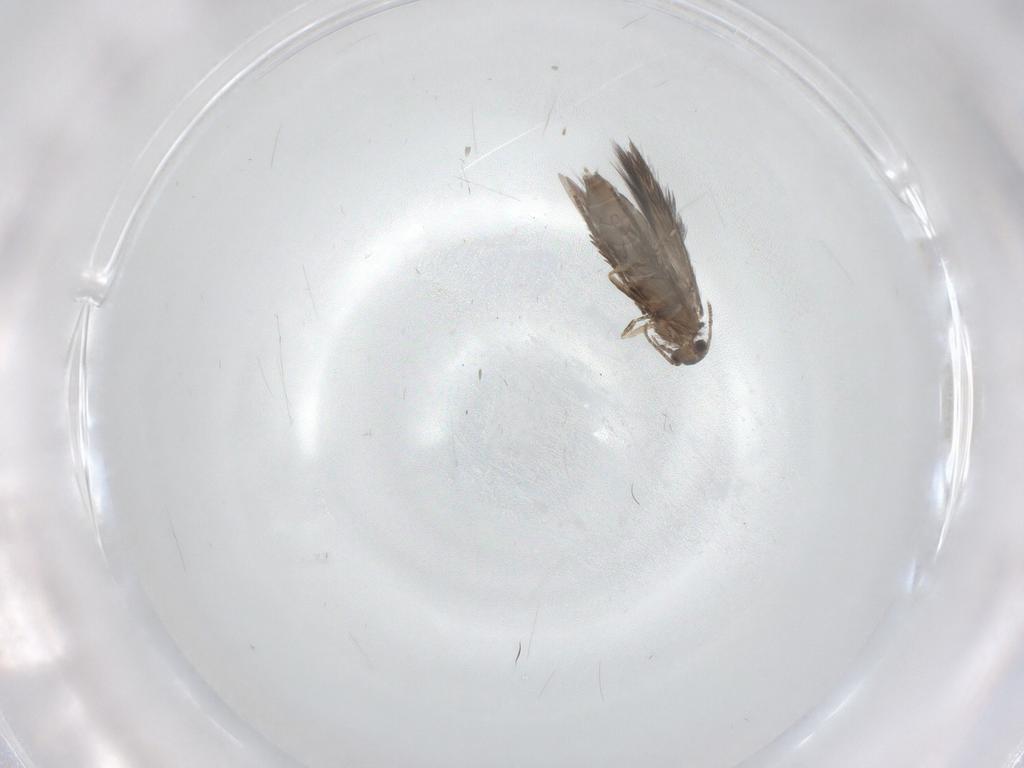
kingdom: Animalia
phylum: Arthropoda
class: Insecta
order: Trichoptera
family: Hydroptilidae
